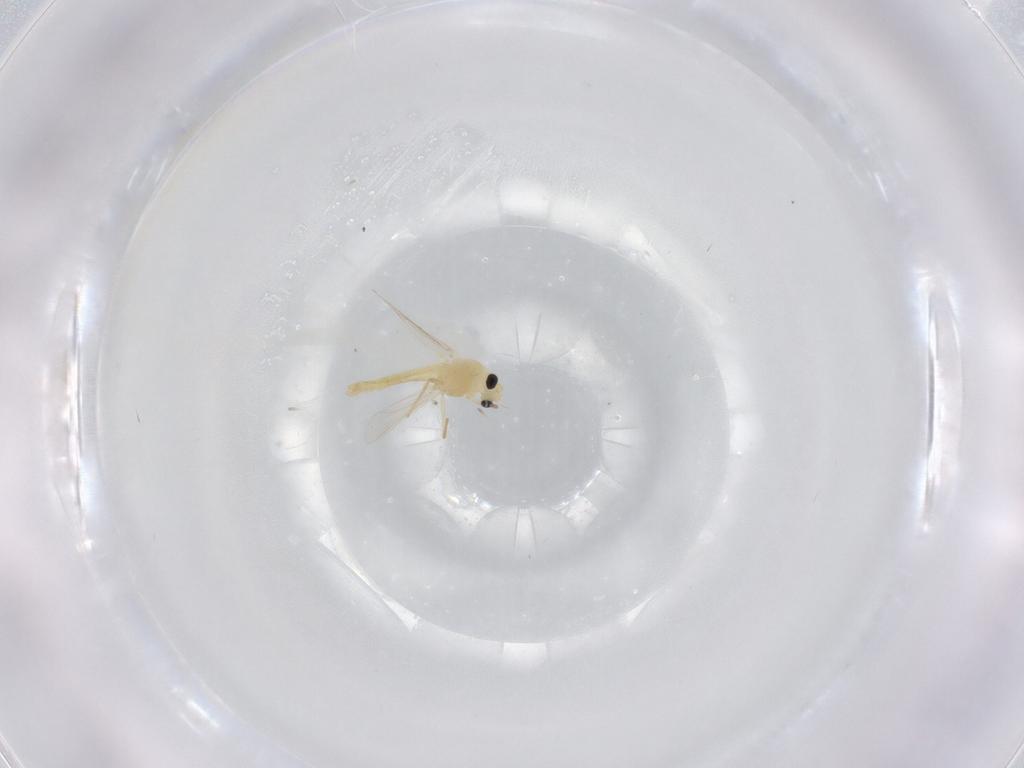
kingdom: Animalia
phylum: Arthropoda
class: Insecta
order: Diptera
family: Chironomidae
